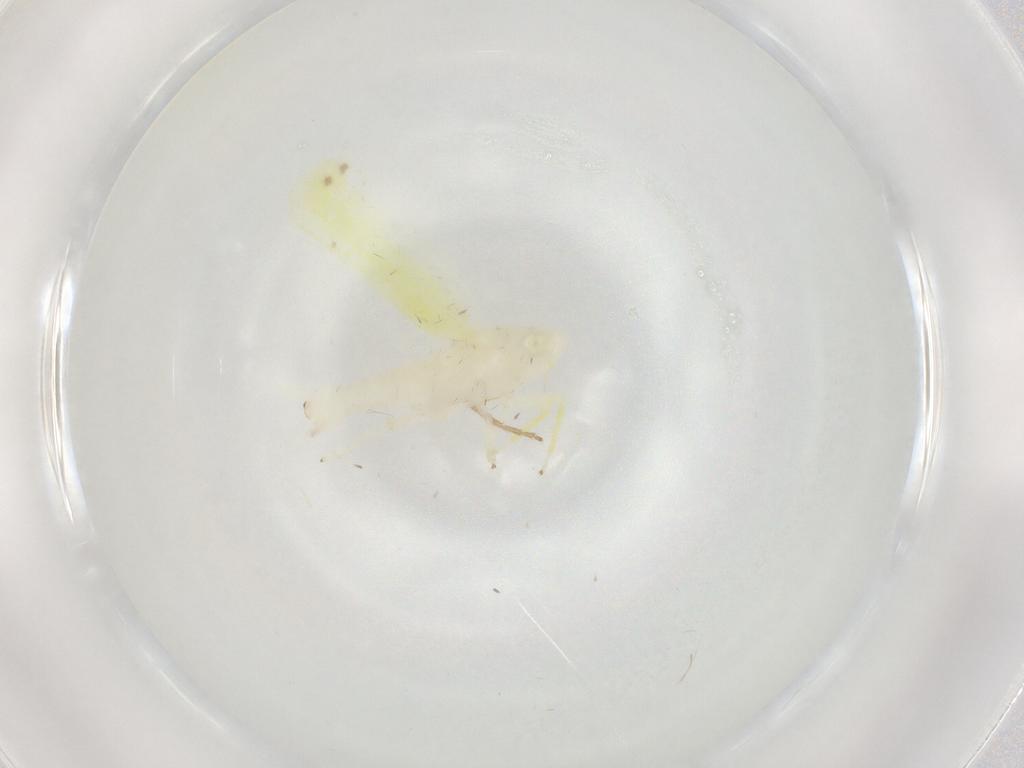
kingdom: Animalia
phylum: Arthropoda
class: Insecta
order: Hemiptera
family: Cicadellidae
